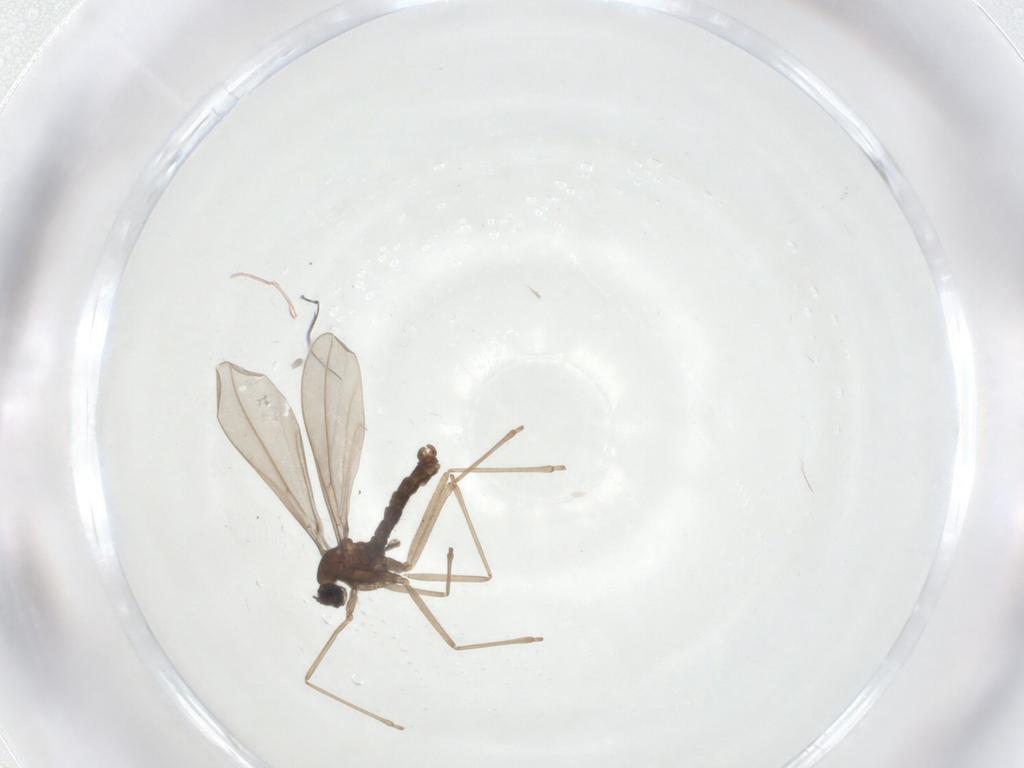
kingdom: Animalia
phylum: Arthropoda
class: Insecta
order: Diptera
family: Cecidomyiidae
